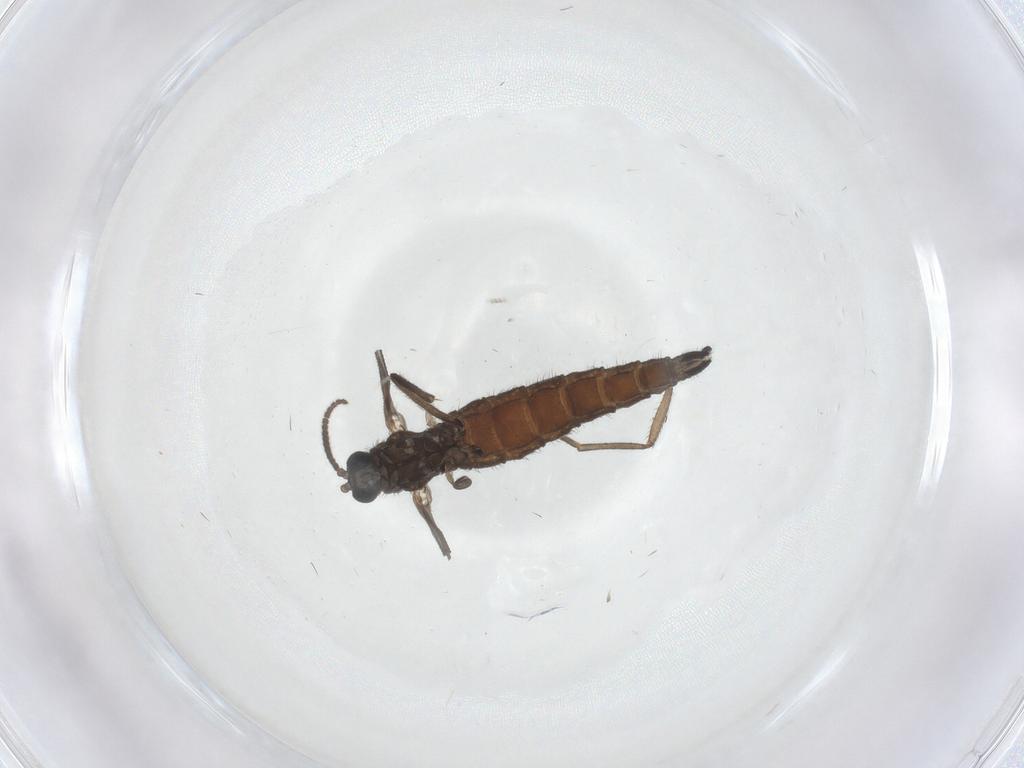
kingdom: Animalia
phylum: Arthropoda
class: Insecta
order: Diptera
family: Sciaridae
